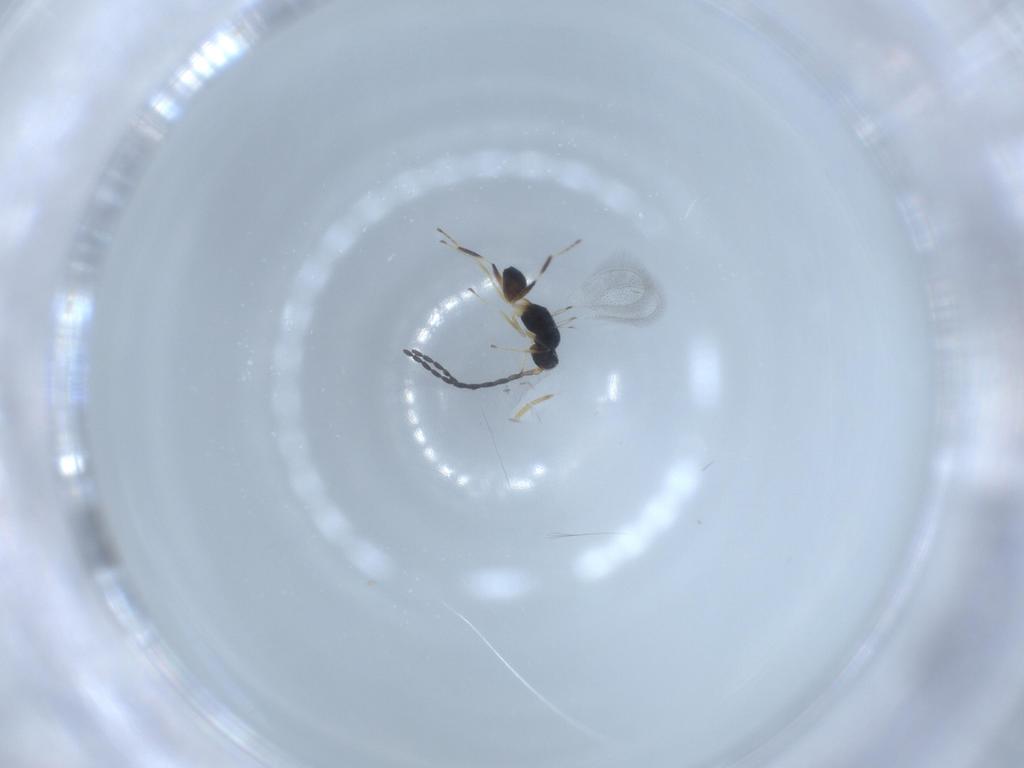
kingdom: Animalia
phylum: Arthropoda
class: Insecta
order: Hymenoptera
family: Mymaridae
